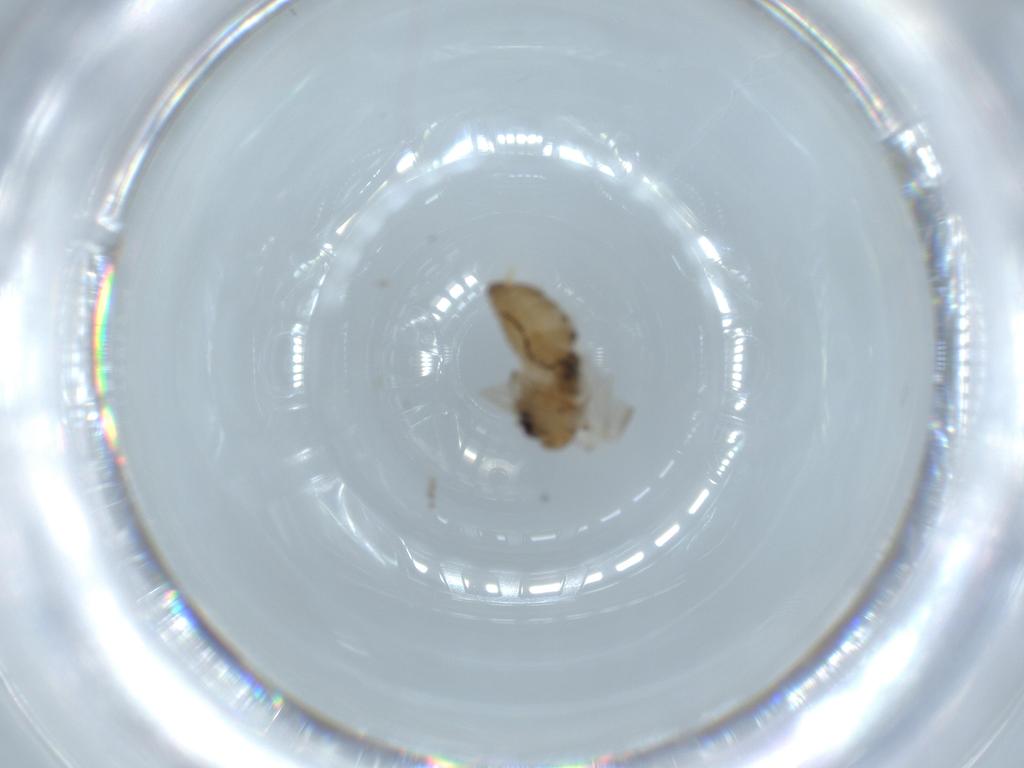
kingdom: Animalia
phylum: Arthropoda
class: Insecta
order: Diptera
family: Psychodidae
